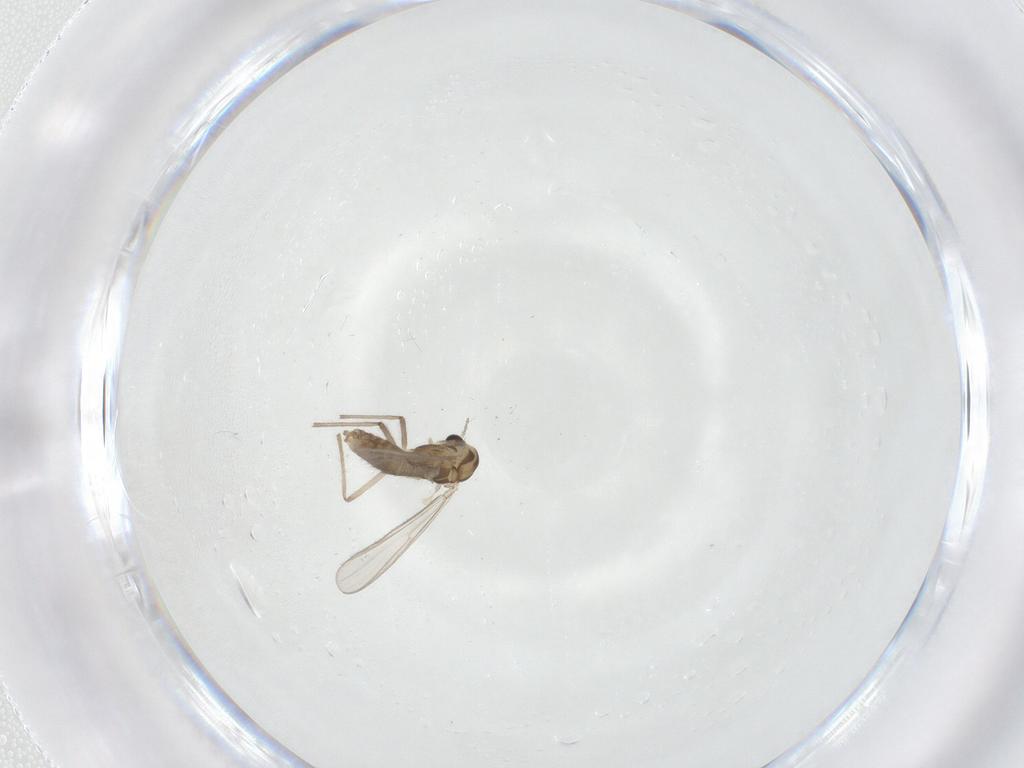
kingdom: Animalia
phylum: Arthropoda
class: Insecta
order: Diptera
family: Chironomidae
